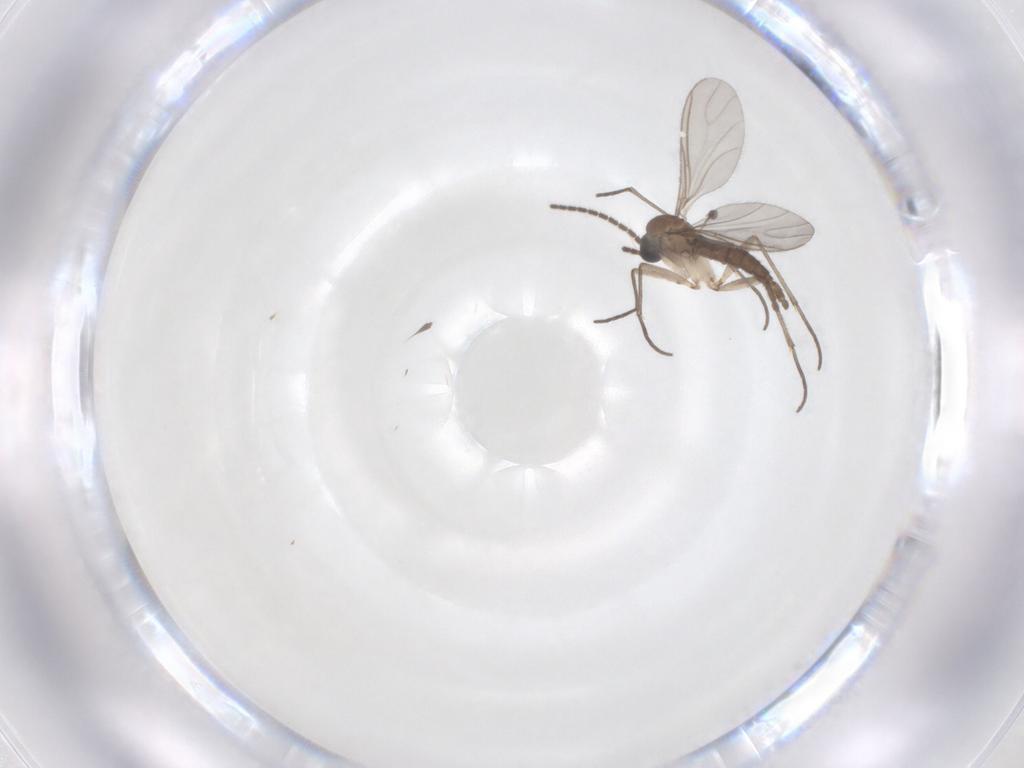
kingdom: Animalia
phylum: Arthropoda
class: Insecta
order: Diptera
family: Sciaridae
